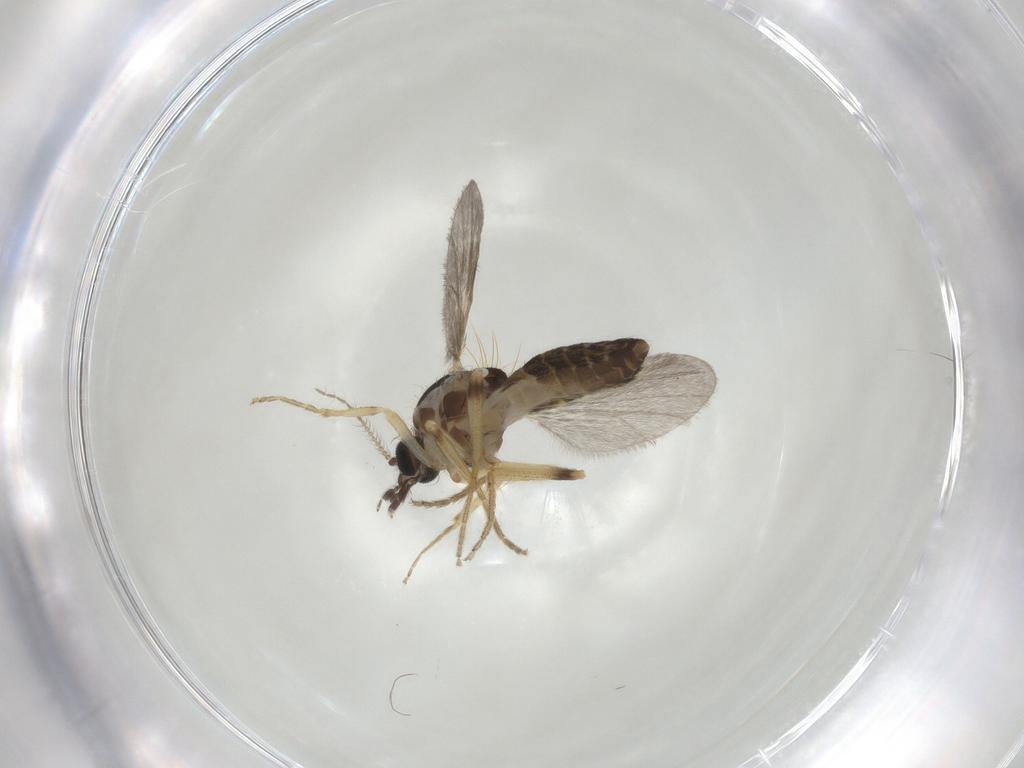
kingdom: Animalia
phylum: Arthropoda
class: Insecta
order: Diptera
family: Ceratopogonidae
